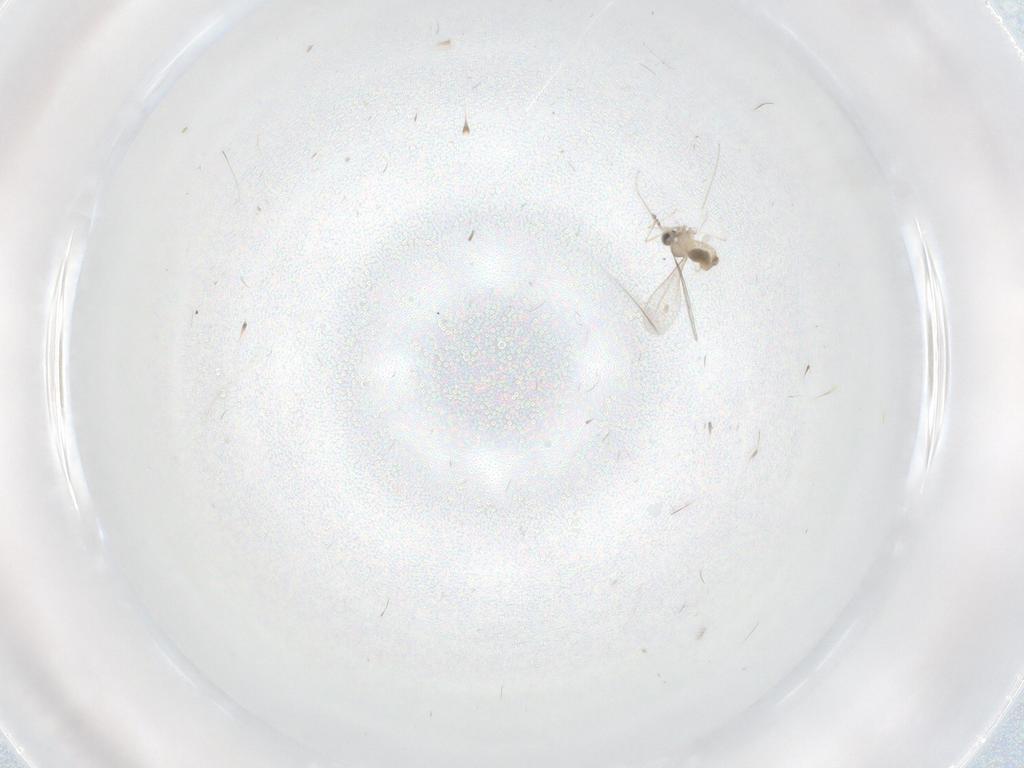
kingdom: Animalia
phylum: Arthropoda
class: Insecta
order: Diptera
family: Cecidomyiidae
